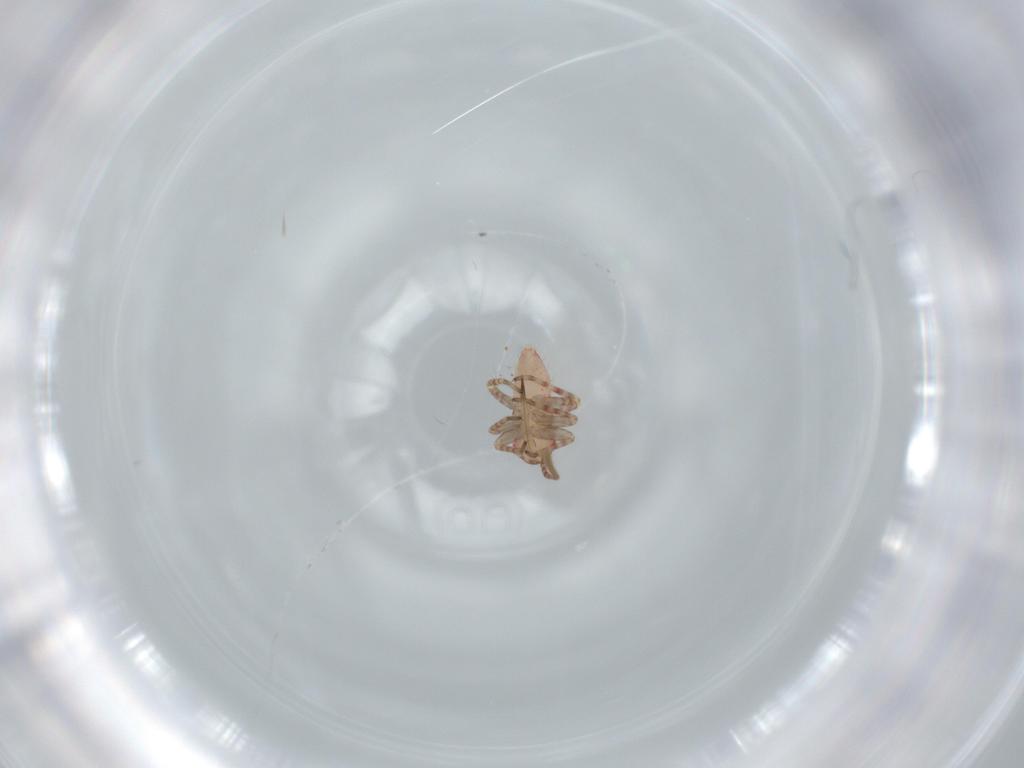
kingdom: Animalia
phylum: Arthropoda
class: Insecta
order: Hemiptera
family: Miridae
